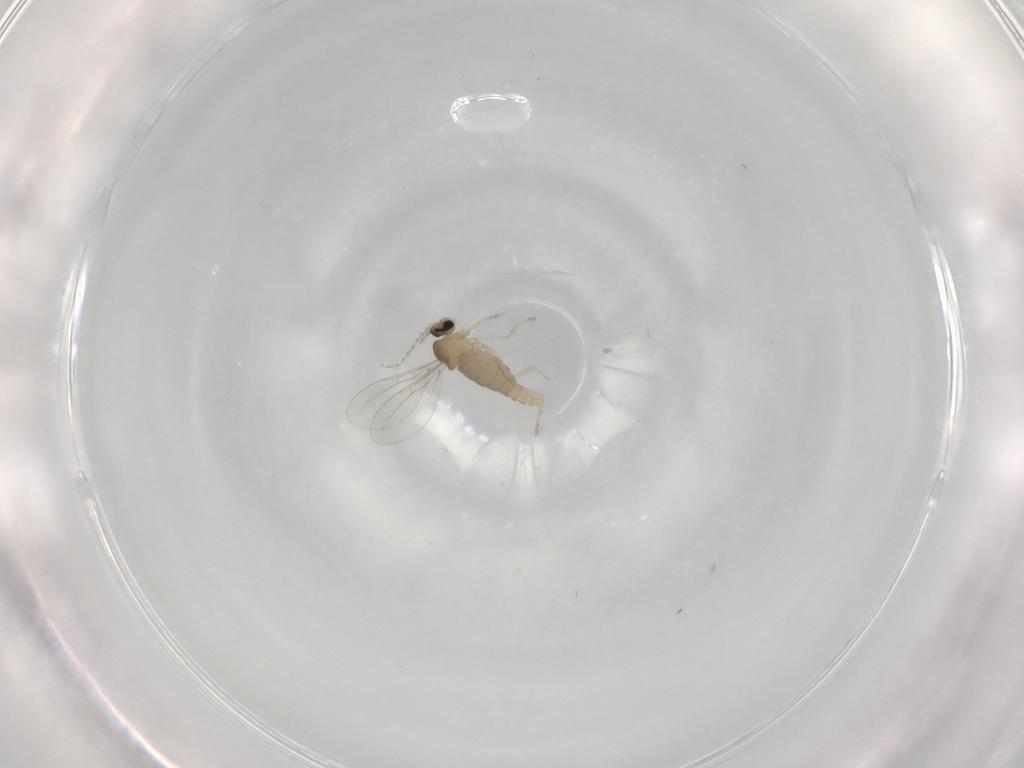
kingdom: Animalia
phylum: Arthropoda
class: Insecta
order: Diptera
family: Cecidomyiidae
